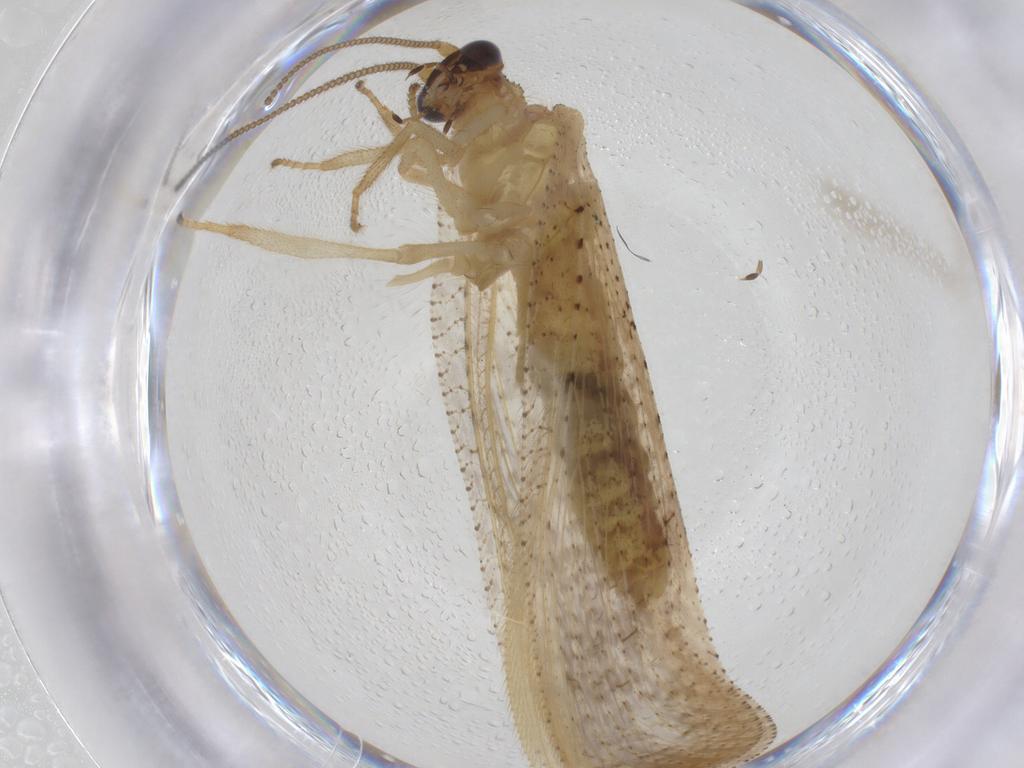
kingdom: Animalia
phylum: Arthropoda
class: Insecta
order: Neuroptera
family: Hemerobiidae
